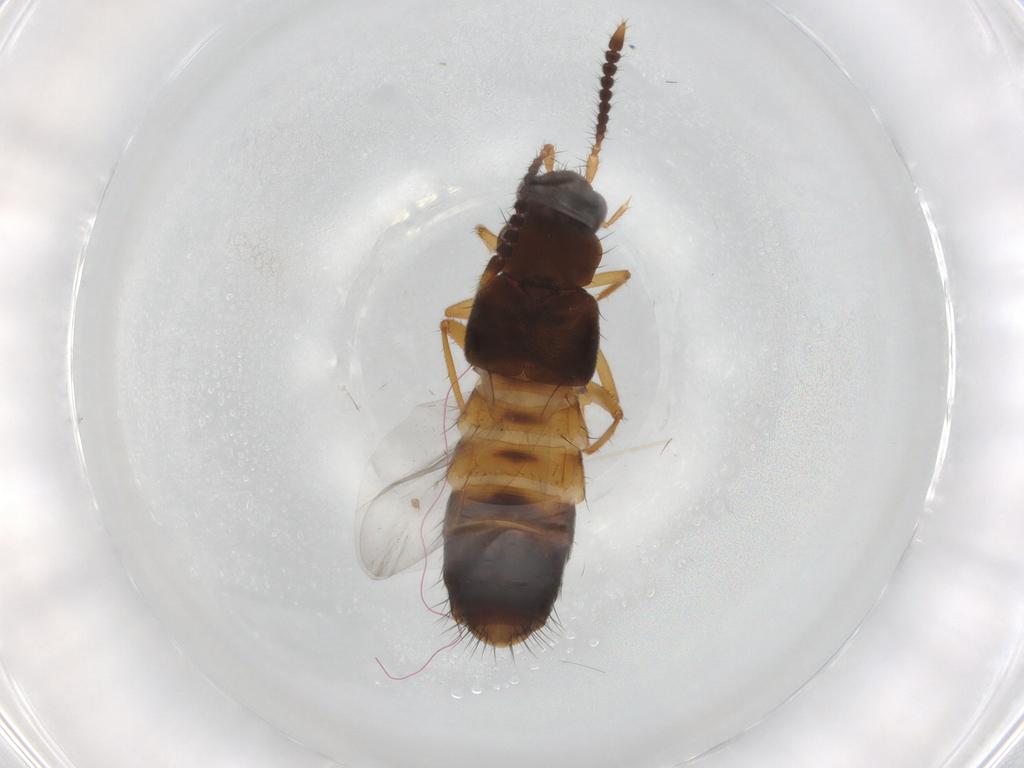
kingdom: Animalia
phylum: Arthropoda
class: Insecta
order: Coleoptera
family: Staphylinidae
